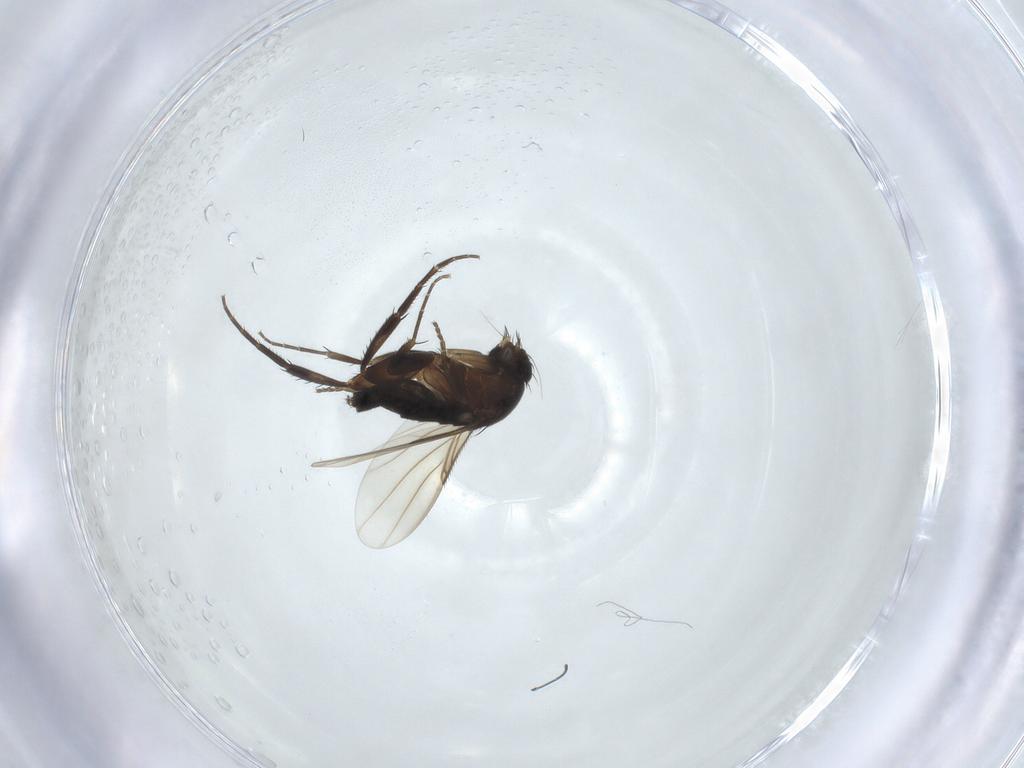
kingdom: Animalia
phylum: Arthropoda
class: Insecta
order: Diptera
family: Phoridae
